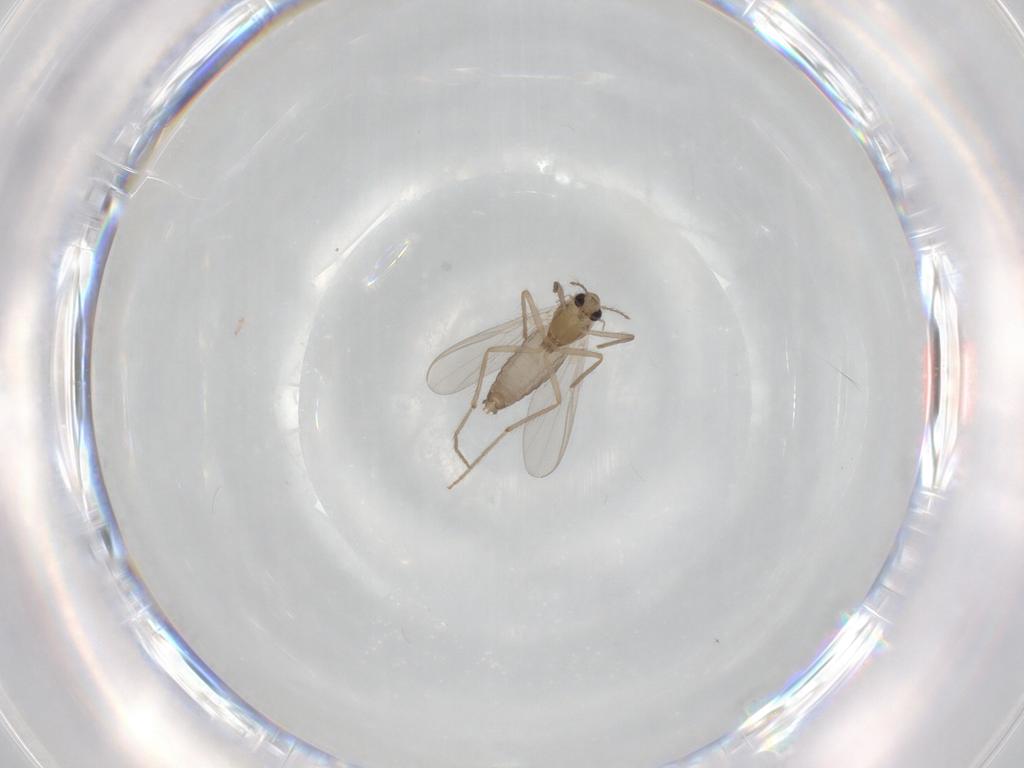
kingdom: Animalia
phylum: Arthropoda
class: Insecta
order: Diptera
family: Chironomidae
